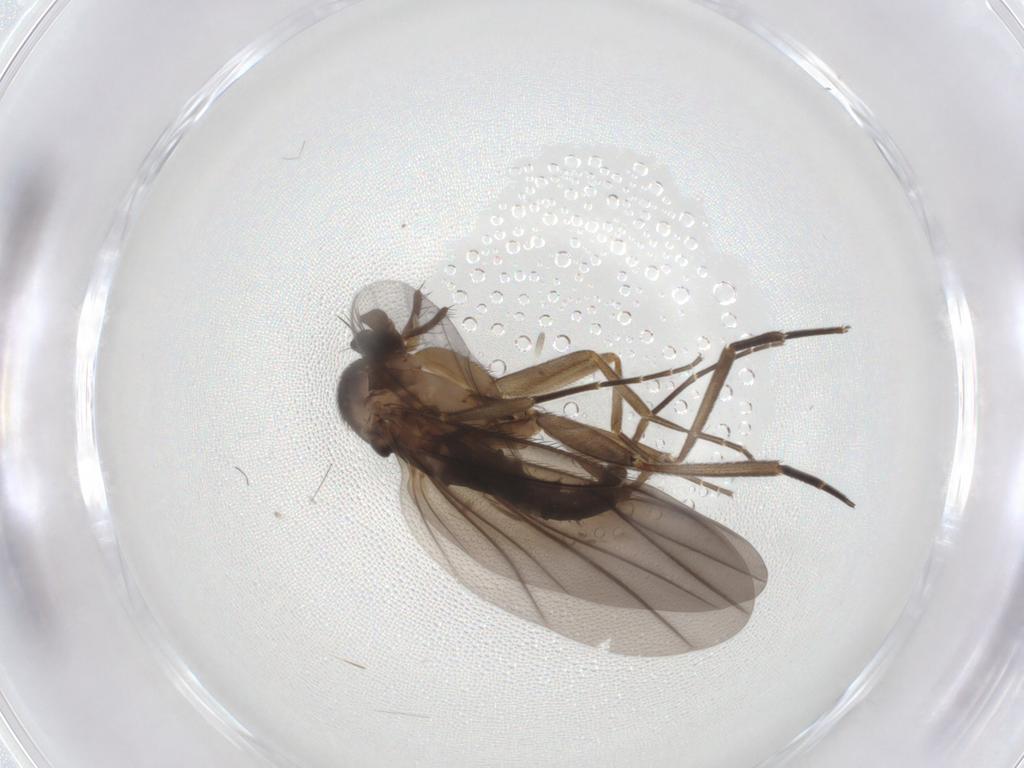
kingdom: Animalia
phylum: Arthropoda
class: Insecta
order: Diptera
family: Phoridae
